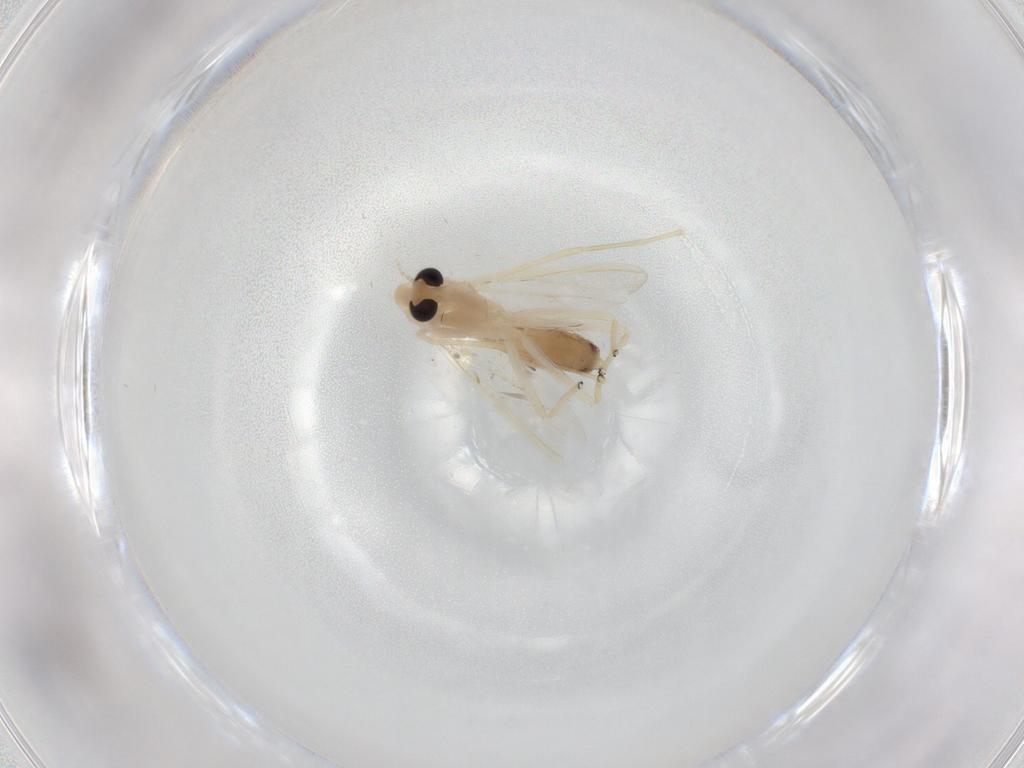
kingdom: Animalia
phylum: Arthropoda
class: Insecta
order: Diptera
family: Chironomidae
